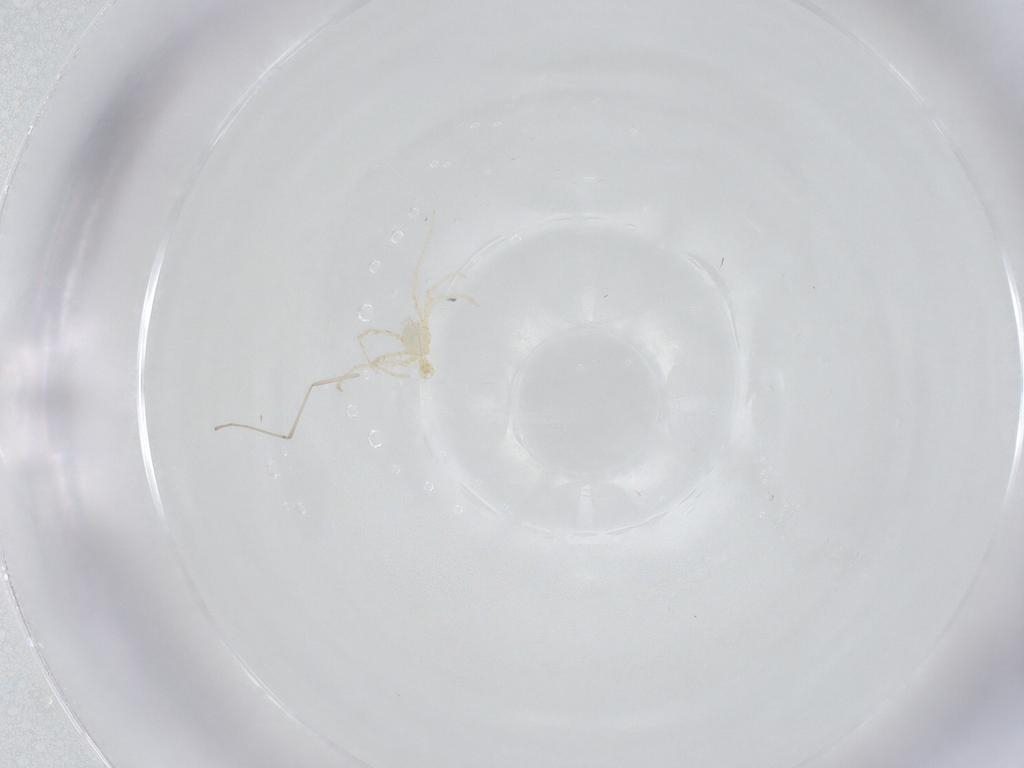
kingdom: Animalia
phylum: Arthropoda
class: Arachnida
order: Trombidiformes
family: Erythraeidae
